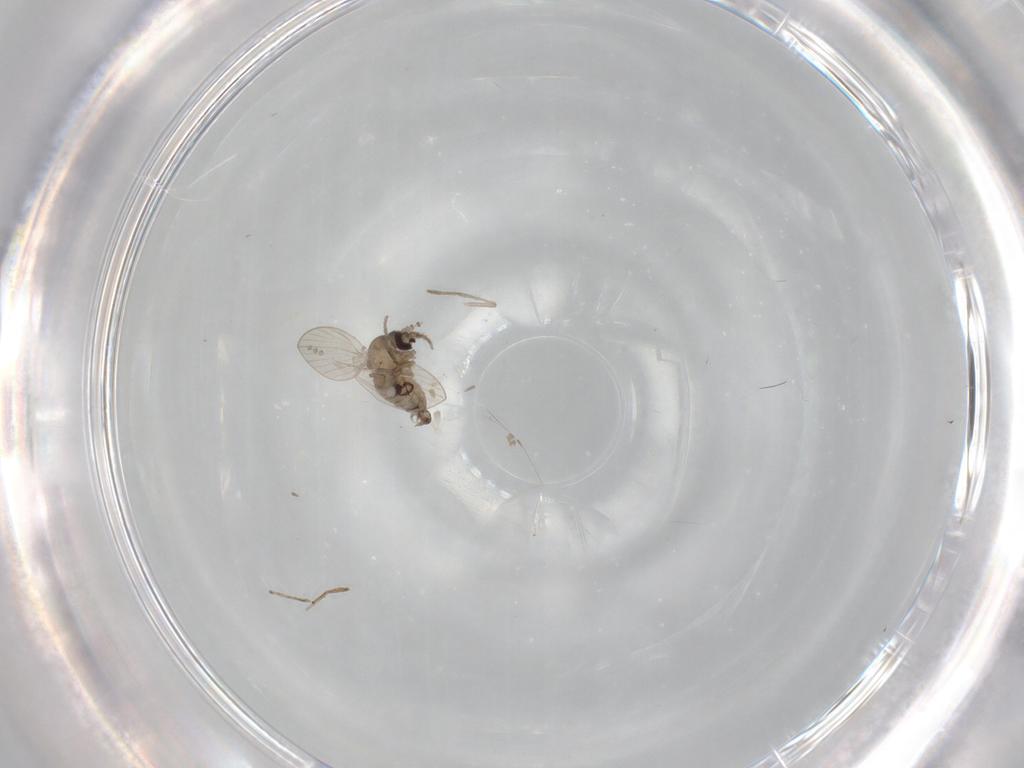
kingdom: Animalia
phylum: Arthropoda
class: Insecta
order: Diptera
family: Psychodidae
